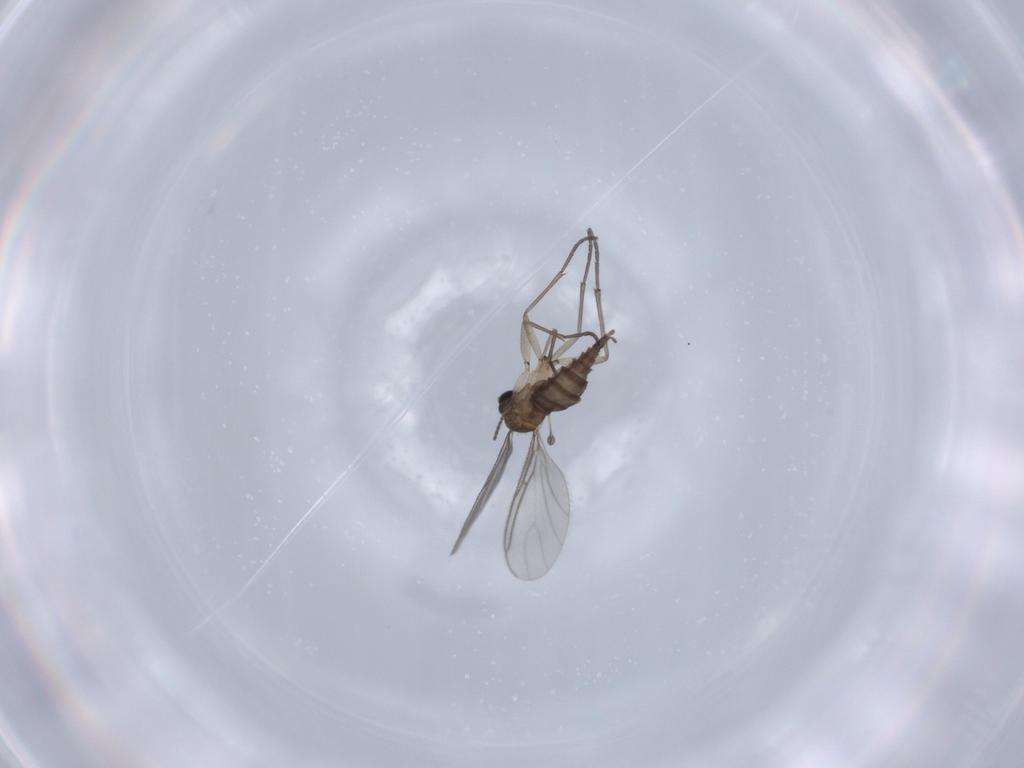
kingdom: Animalia
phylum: Arthropoda
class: Insecta
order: Diptera
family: Sciaridae
